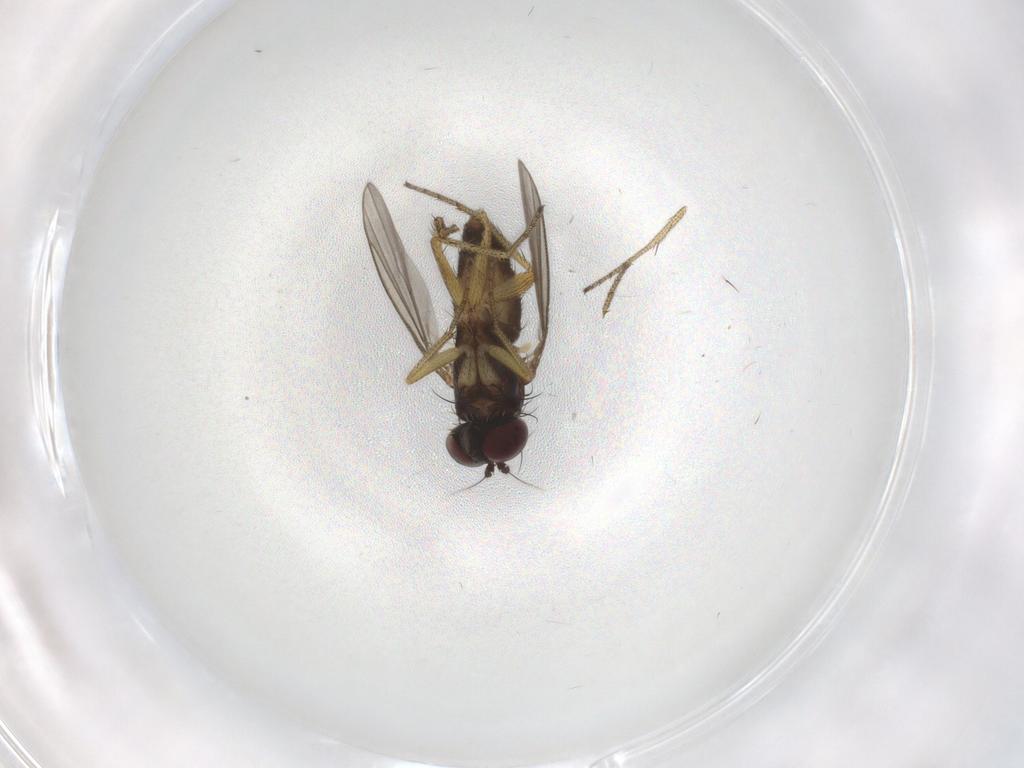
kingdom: Animalia
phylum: Arthropoda
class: Insecta
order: Diptera
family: Dolichopodidae
